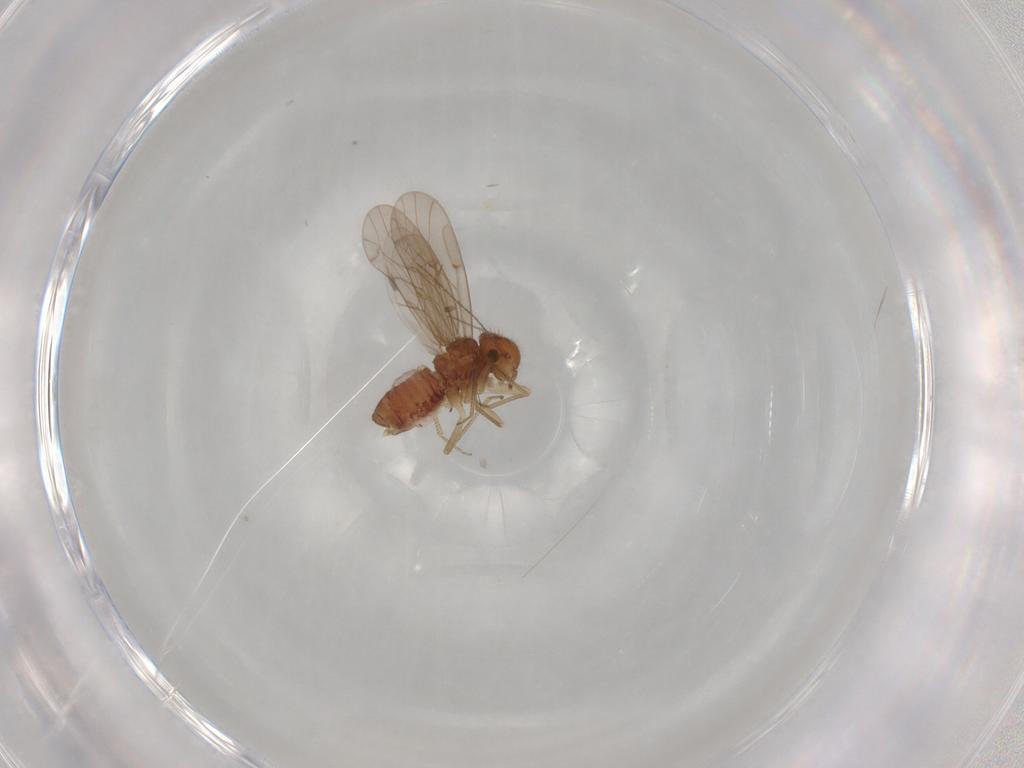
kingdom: Animalia
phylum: Arthropoda
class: Insecta
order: Psocodea
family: Ectopsocidae
